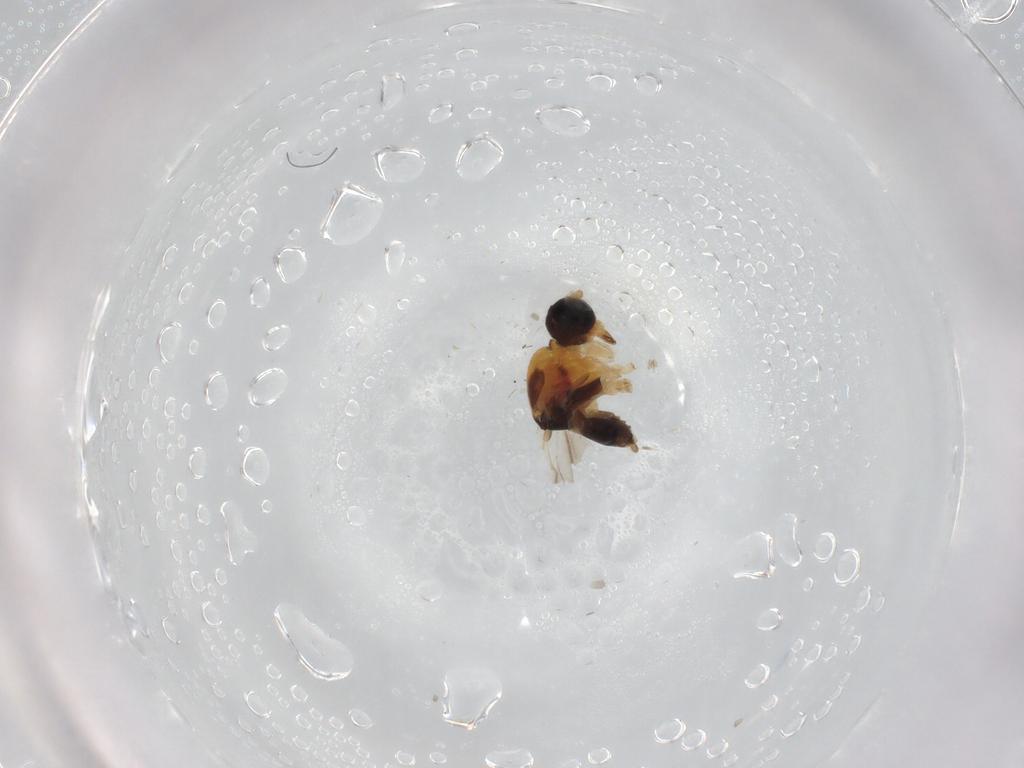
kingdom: Animalia
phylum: Arthropoda
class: Insecta
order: Diptera
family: Hybotidae
